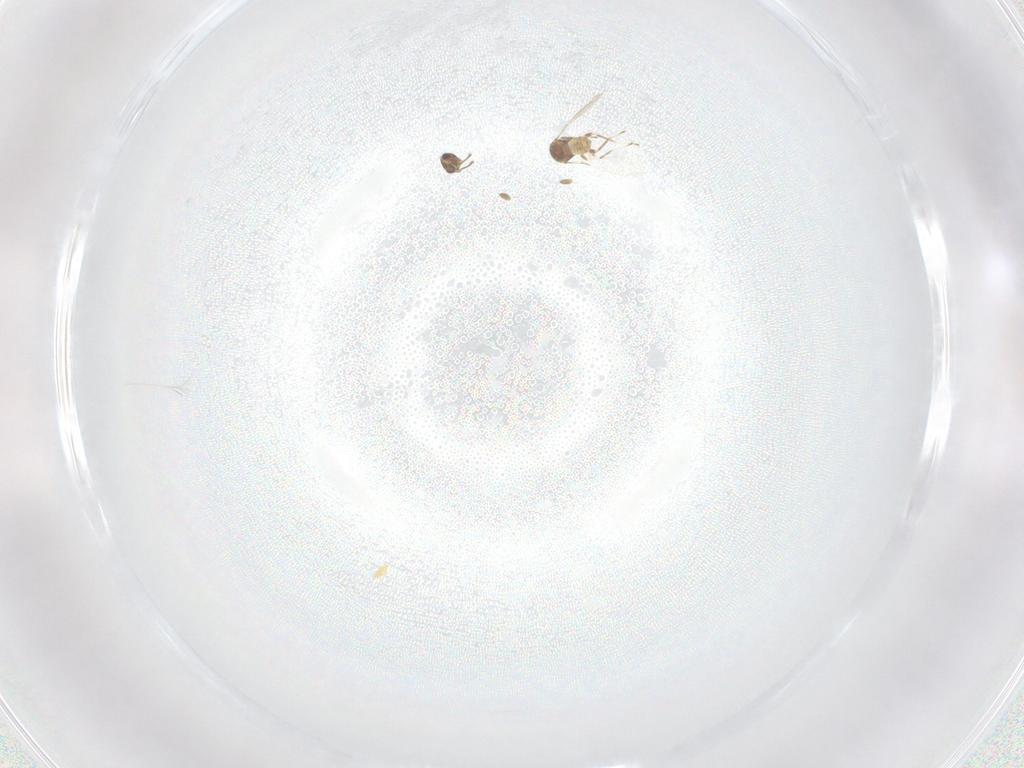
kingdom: Animalia
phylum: Arthropoda
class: Insecta
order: Hymenoptera
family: Mymaridae
